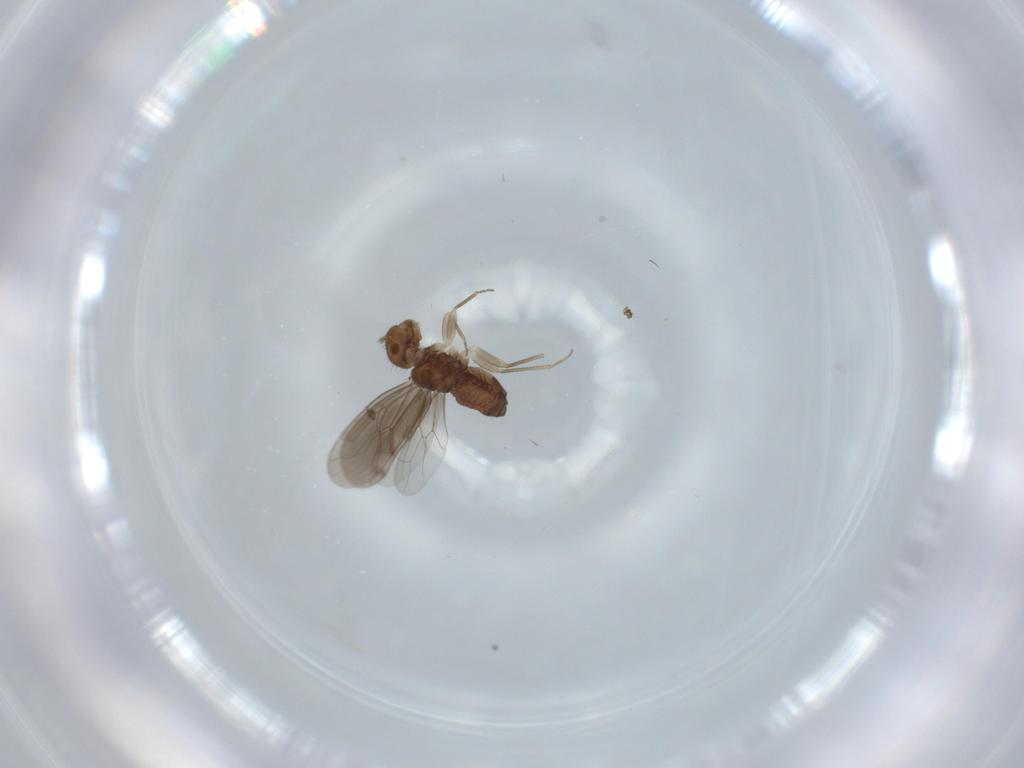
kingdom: Animalia
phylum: Arthropoda
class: Insecta
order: Psocodea
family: Ectopsocidae
